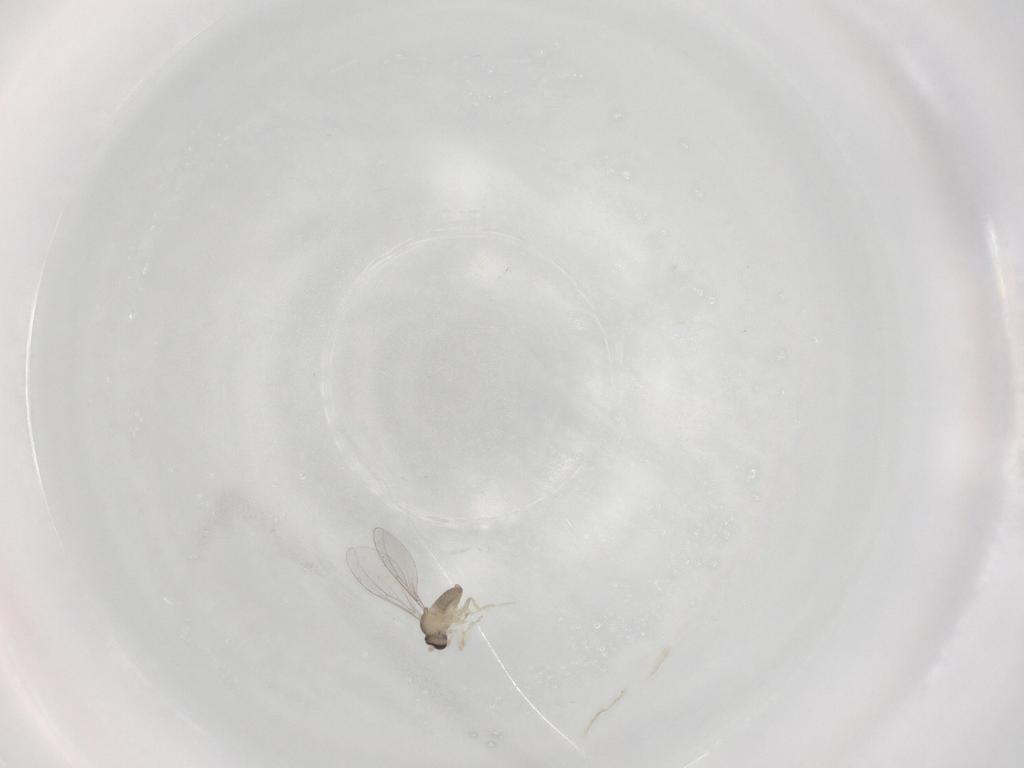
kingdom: Animalia
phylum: Arthropoda
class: Insecta
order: Diptera
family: Cecidomyiidae
